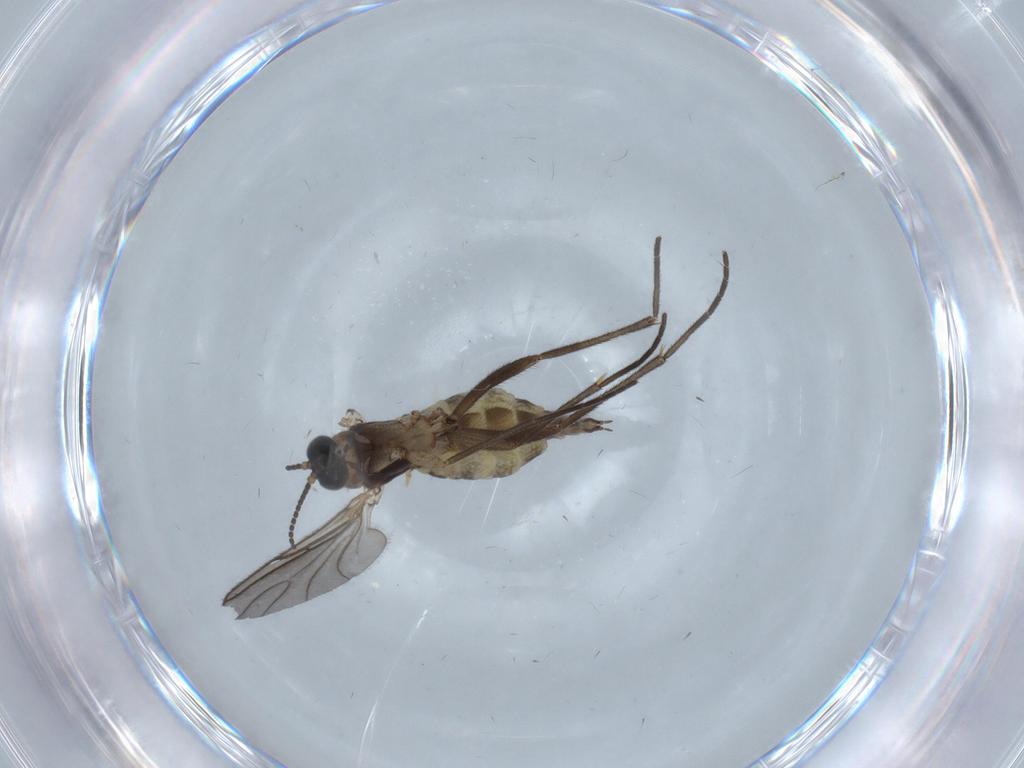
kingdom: Animalia
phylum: Arthropoda
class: Insecta
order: Diptera
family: Sciaridae
